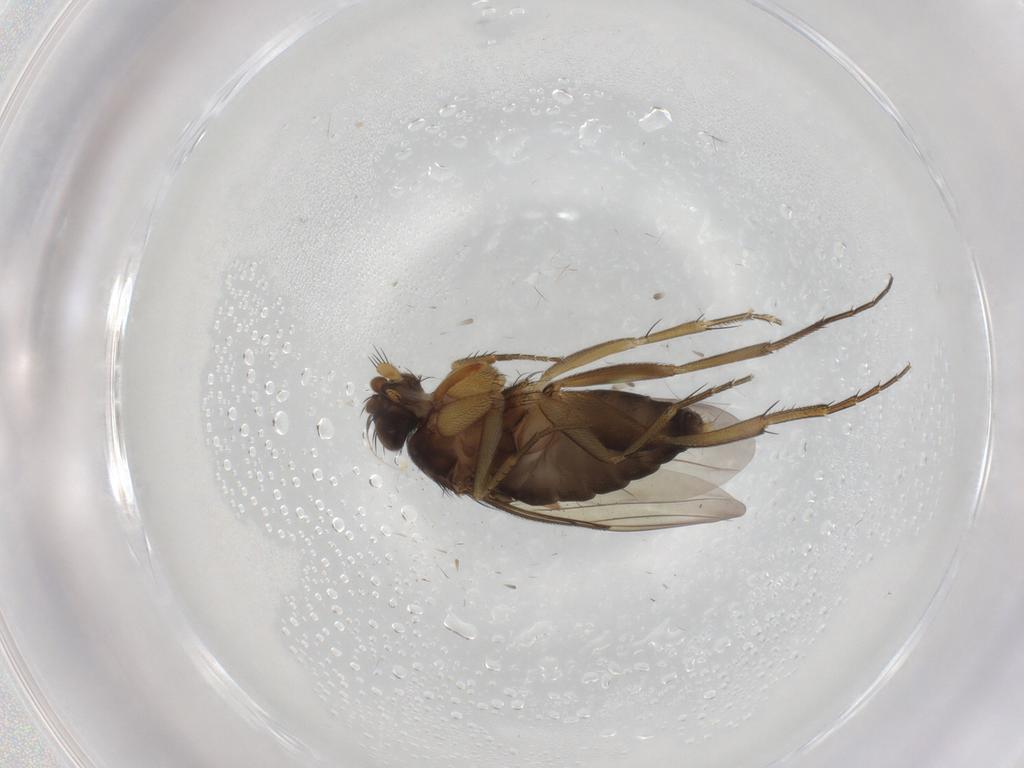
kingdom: Animalia
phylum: Arthropoda
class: Insecta
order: Diptera
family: Phoridae
